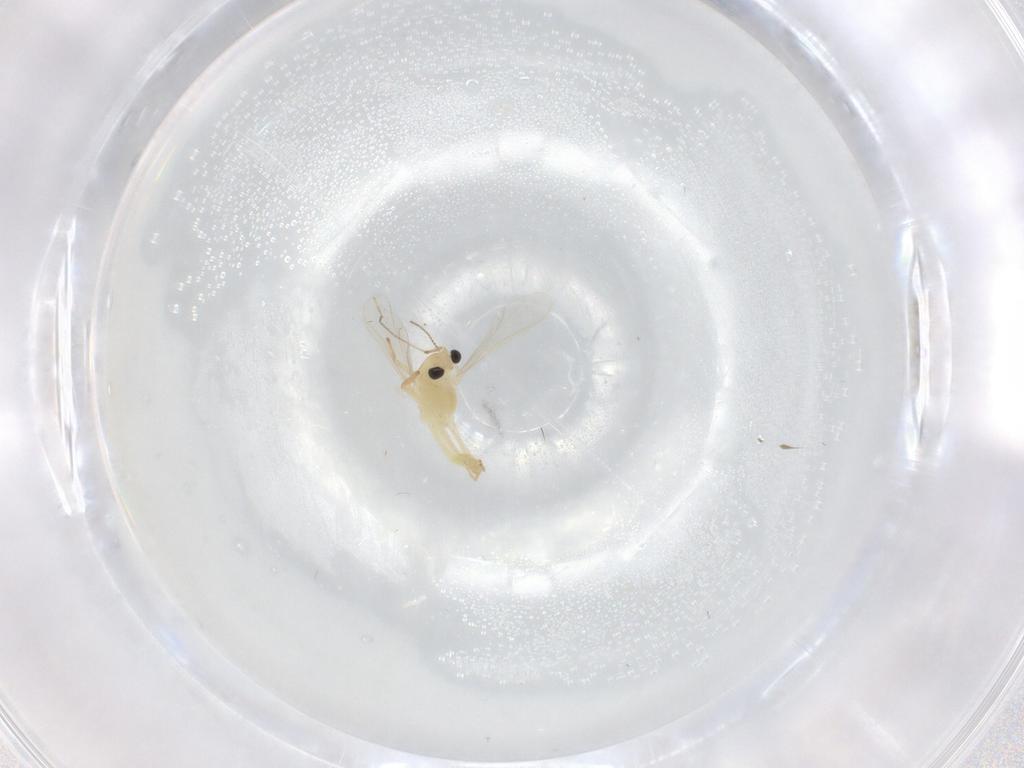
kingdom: Animalia
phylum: Arthropoda
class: Insecta
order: Diptera
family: Chironomidae
